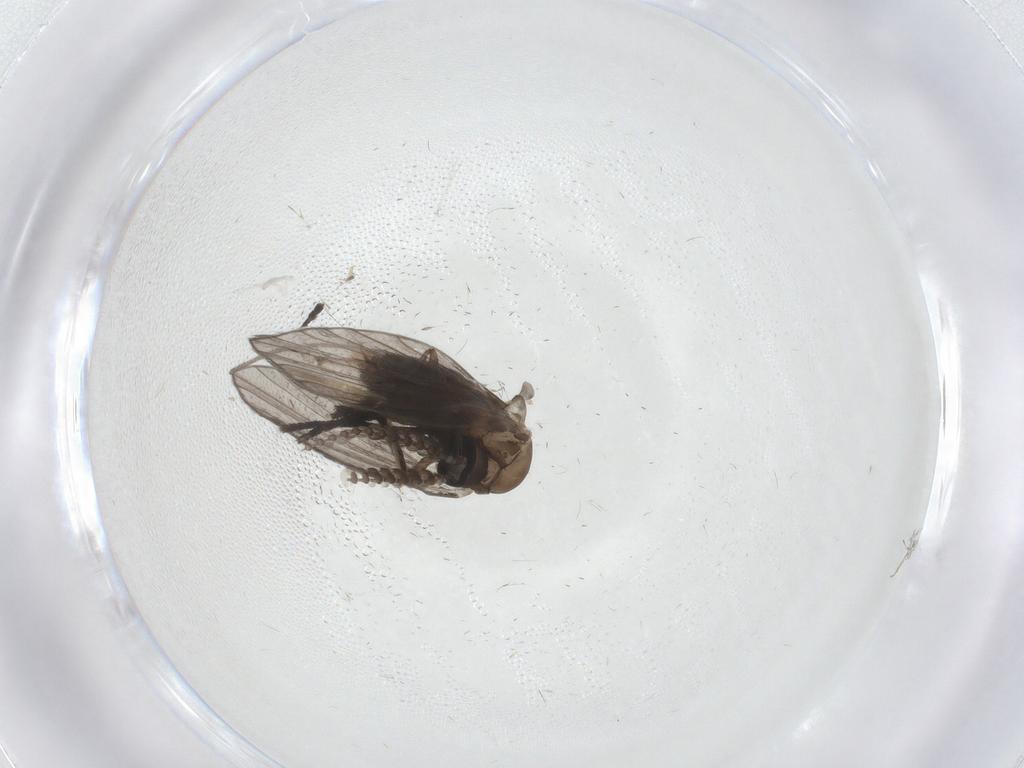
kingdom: Animalia
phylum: Arthropoda
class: Insecta
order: Diptera
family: Psychodidae
